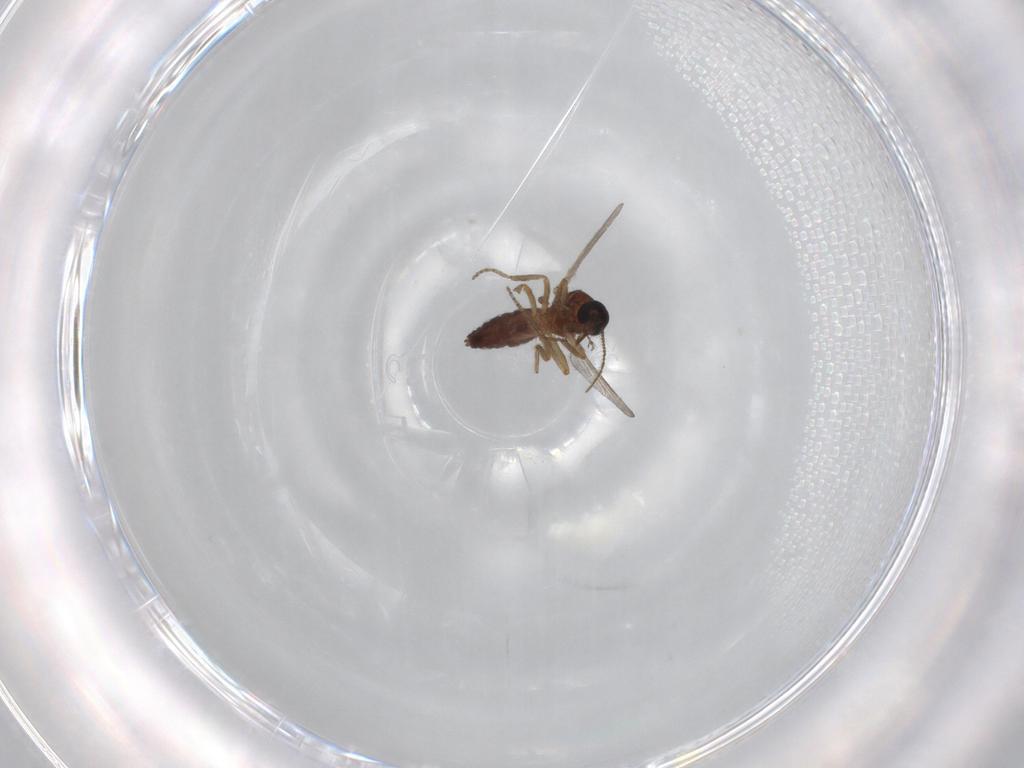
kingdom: Animalia
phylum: Arthropoda
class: Insecta
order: Diptera
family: Ceratopogonidae
